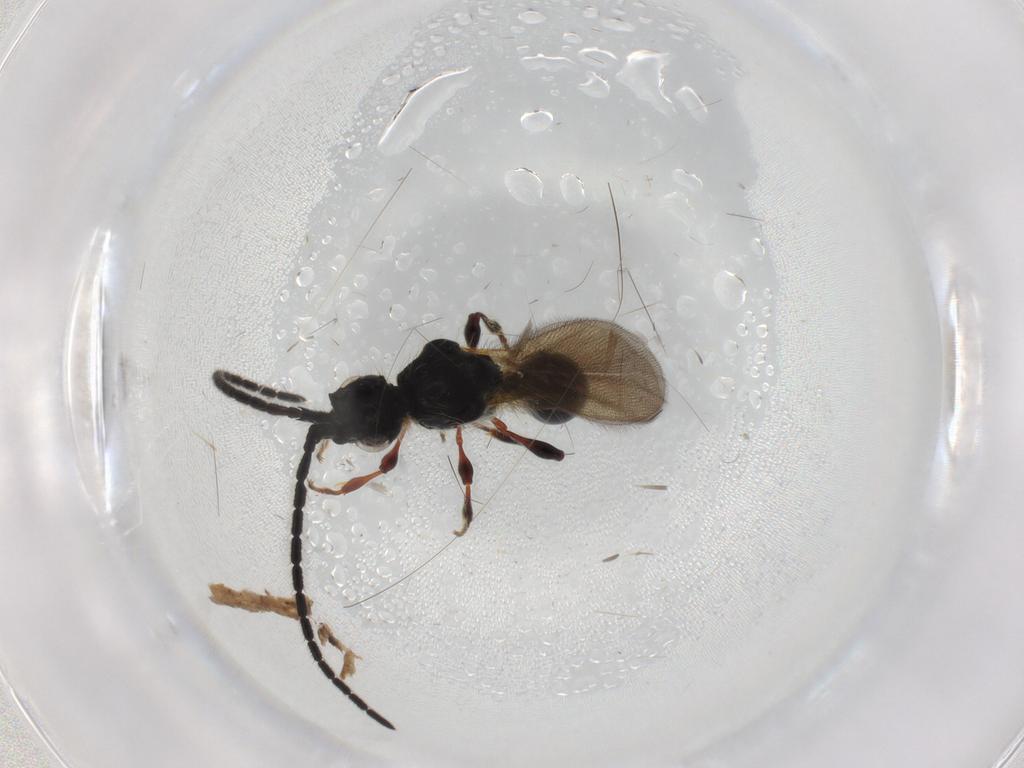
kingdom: Animalia
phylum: Arthropoda
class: Insecta
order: Hymenoptera
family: Diapriidae
